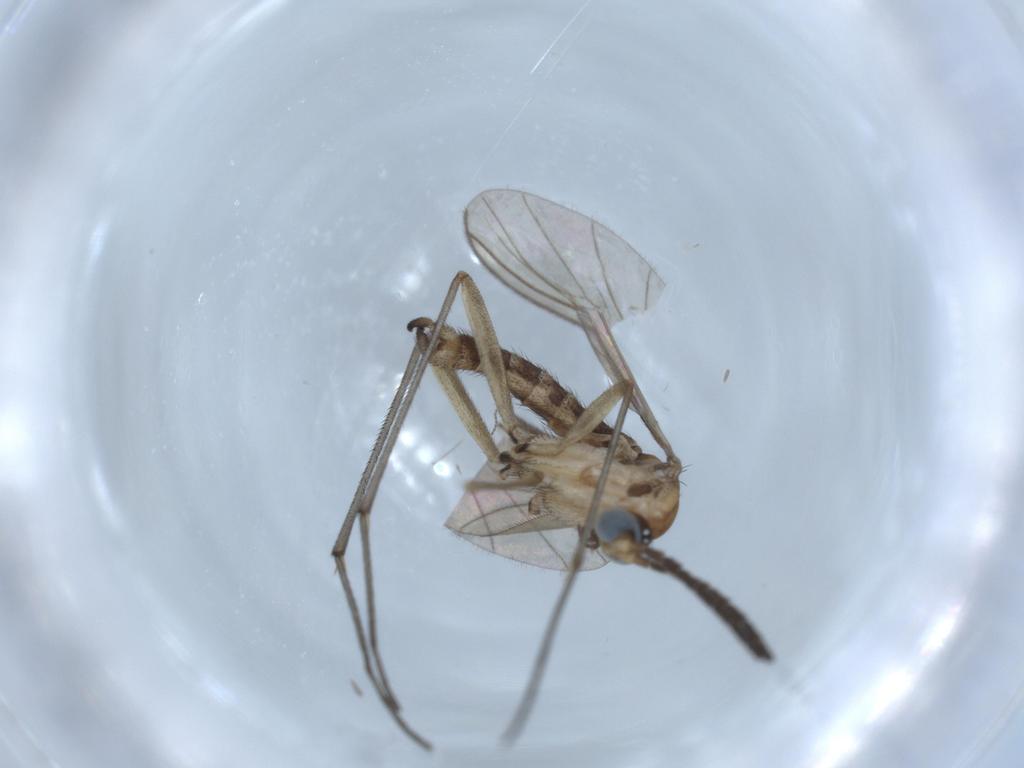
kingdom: Animalia
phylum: Arthropoda
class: Insecta
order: Diptera
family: Sciaridae
